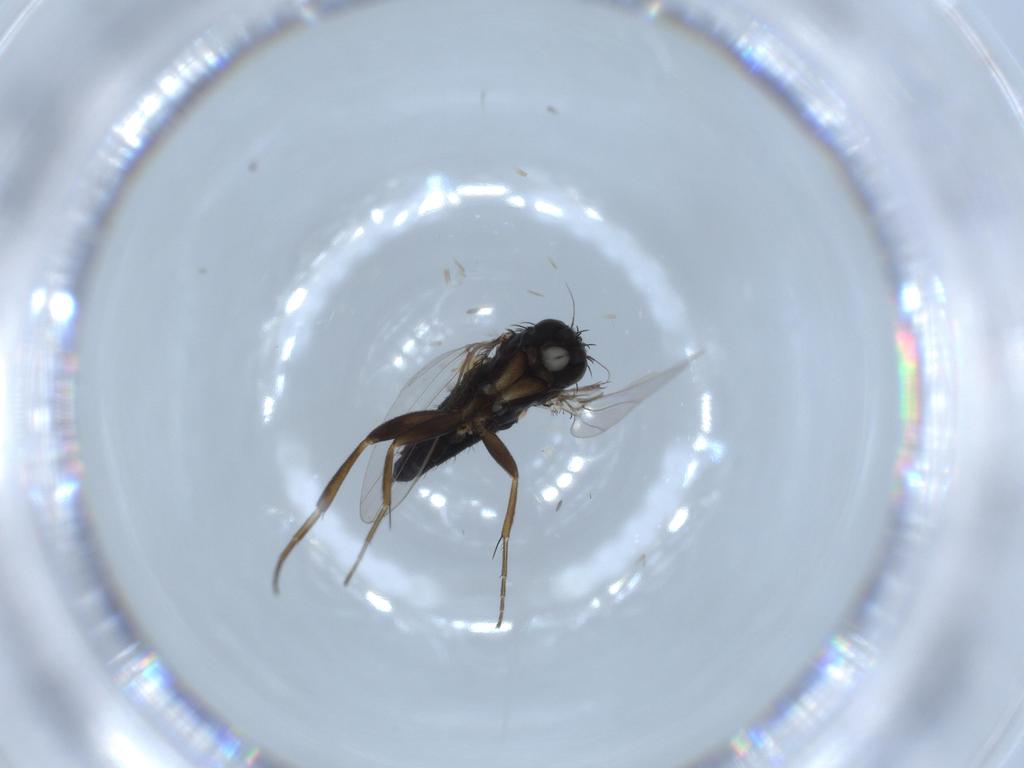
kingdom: Animalia
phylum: Arthropoda
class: Insecta
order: Diptera
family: Phoridae
